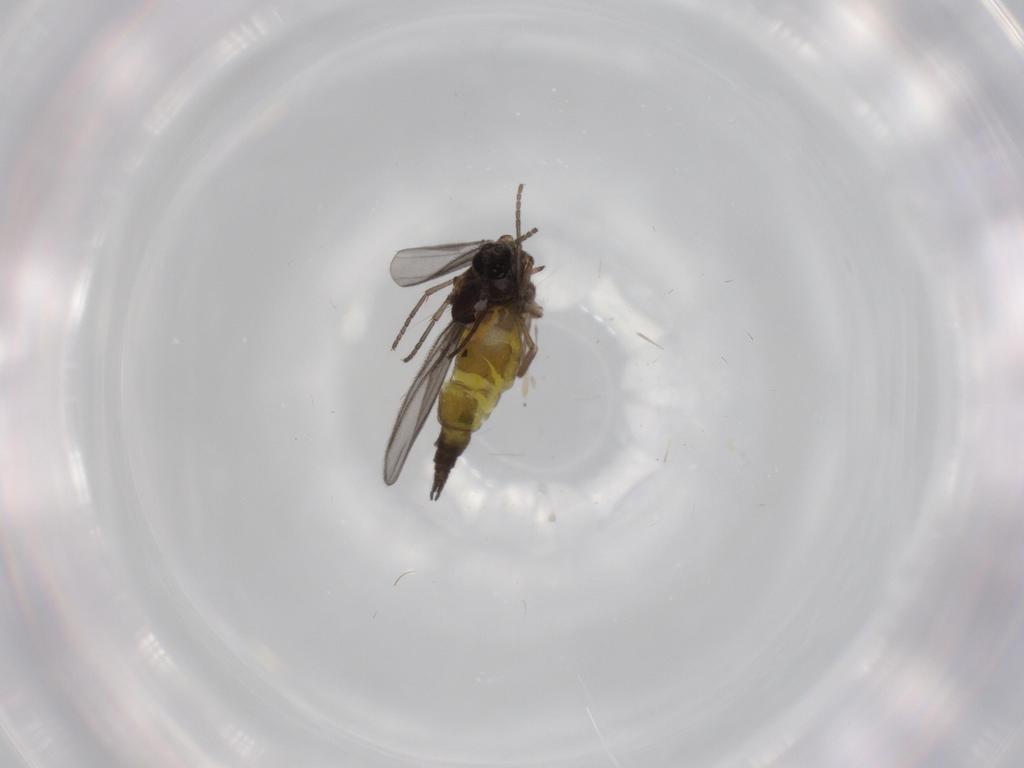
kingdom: Animalia
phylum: Arthropoda
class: Insecta
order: Diptera
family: Sciaridae
